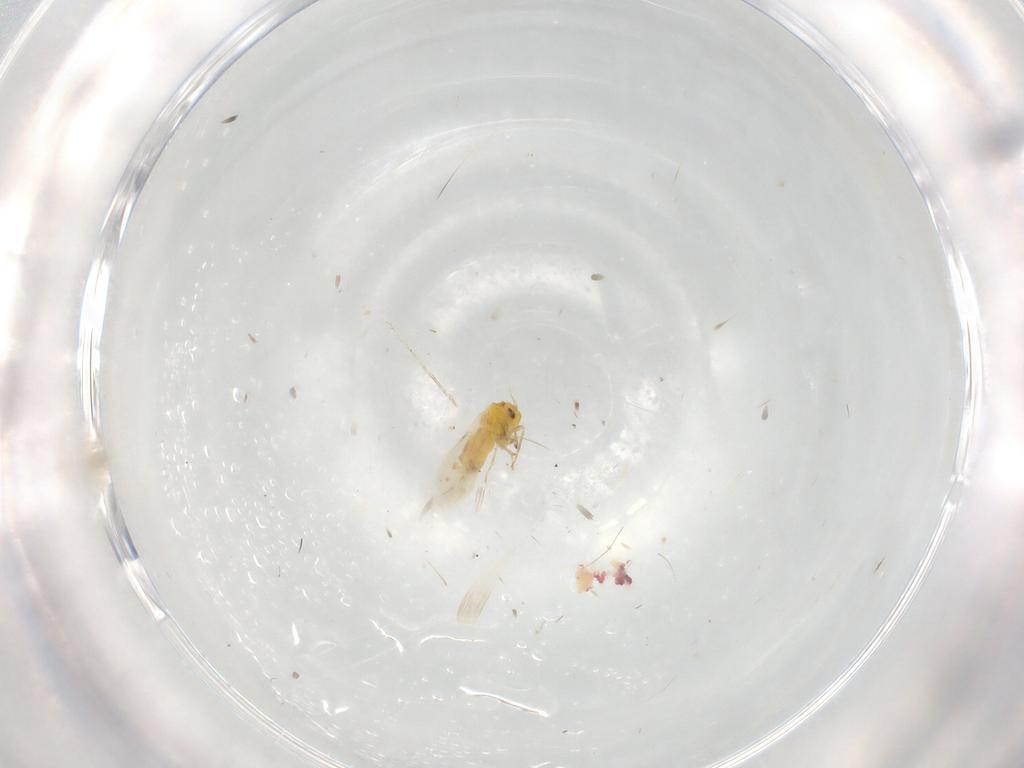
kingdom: Animalia
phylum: Arthropoda
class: Insecta
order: Hemiptera
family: Aleyrodidae
